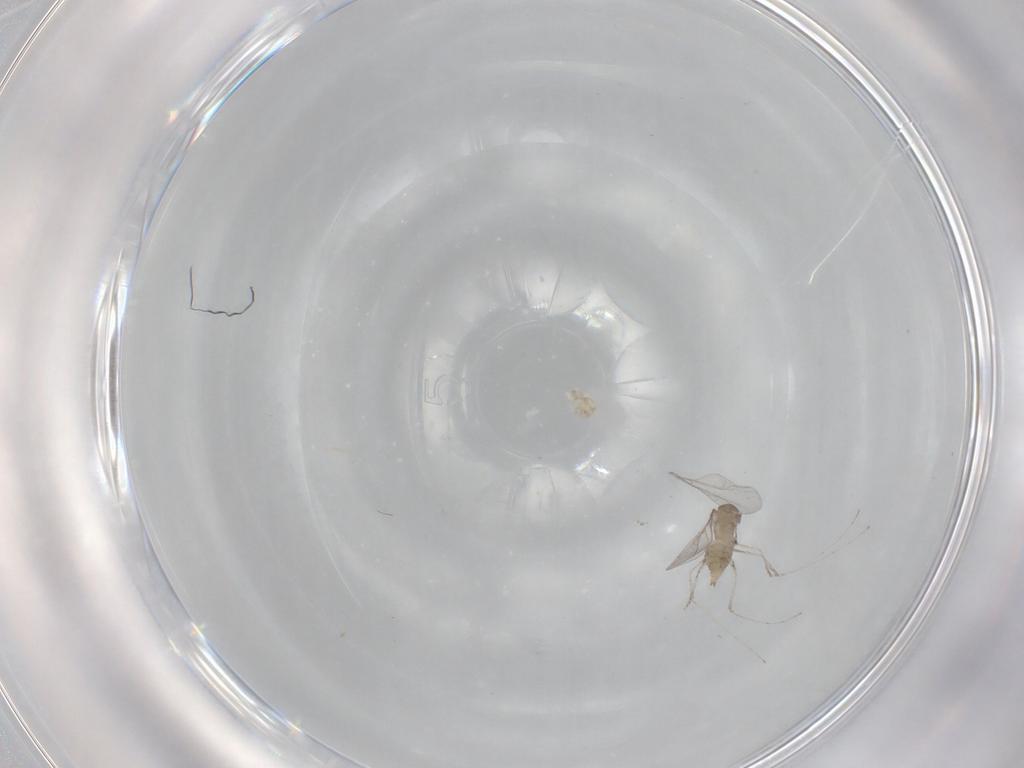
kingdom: Animalia
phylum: Arthropoda
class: Insecta
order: Diptera
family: Cecidomyiidae
